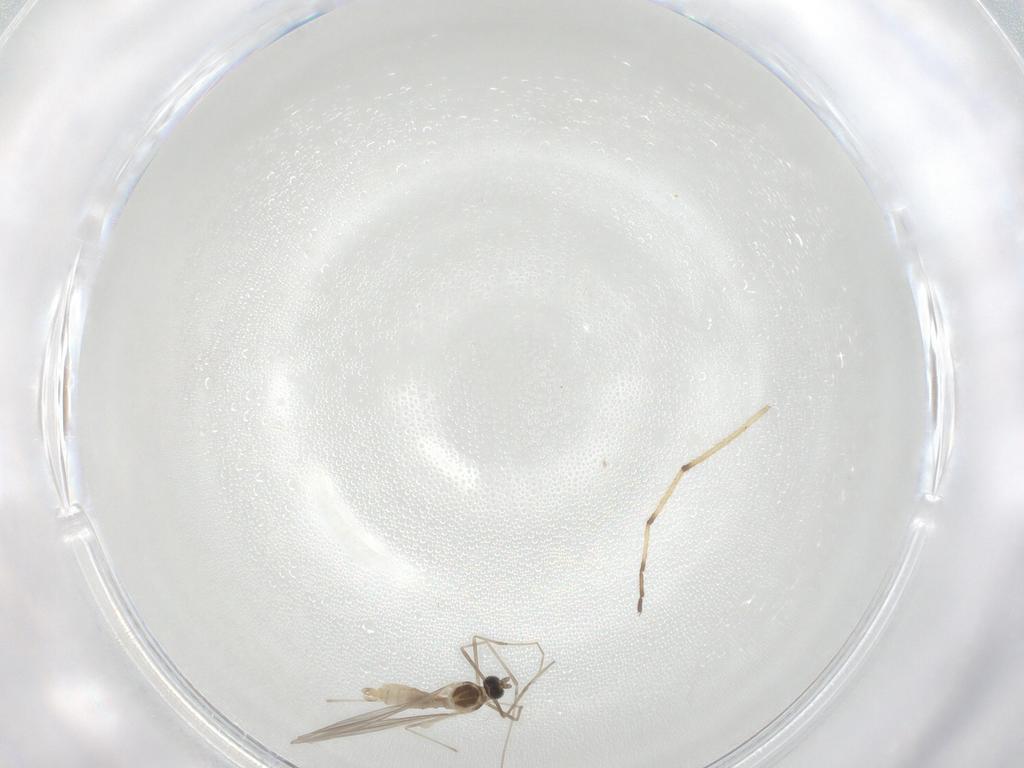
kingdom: Animalia
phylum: Arthropoda
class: Insecta
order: Diptera
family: Chironomidae
